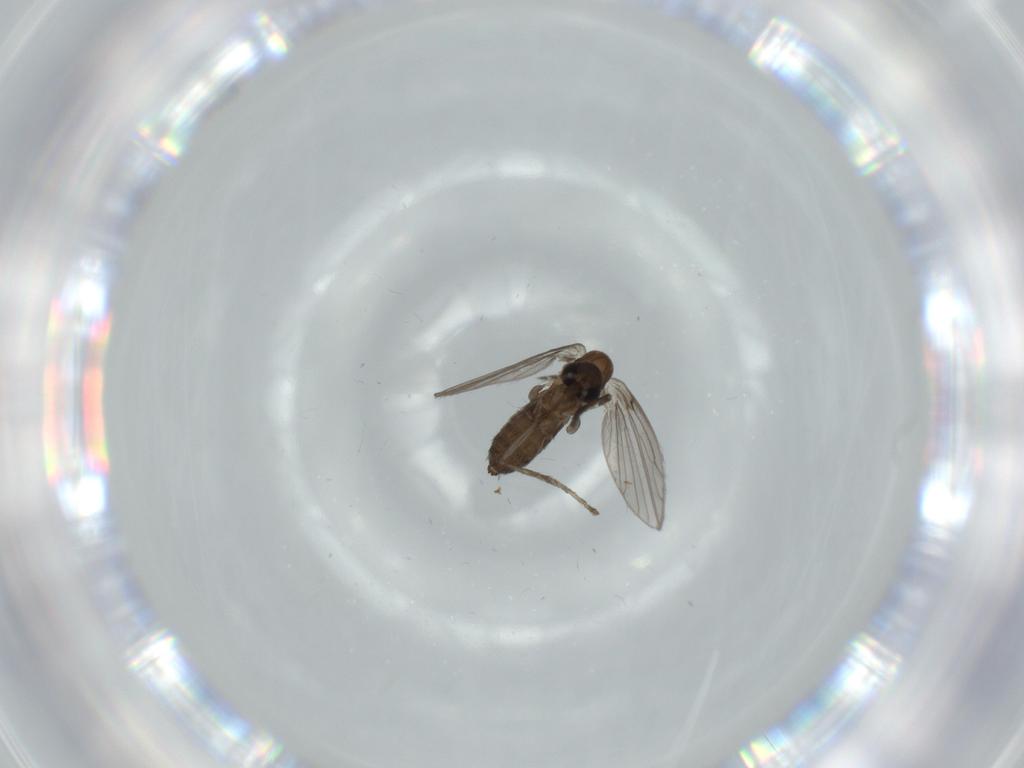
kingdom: Animalia
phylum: Arthropoda
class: Insecta
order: Diptera
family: Psychodidae
